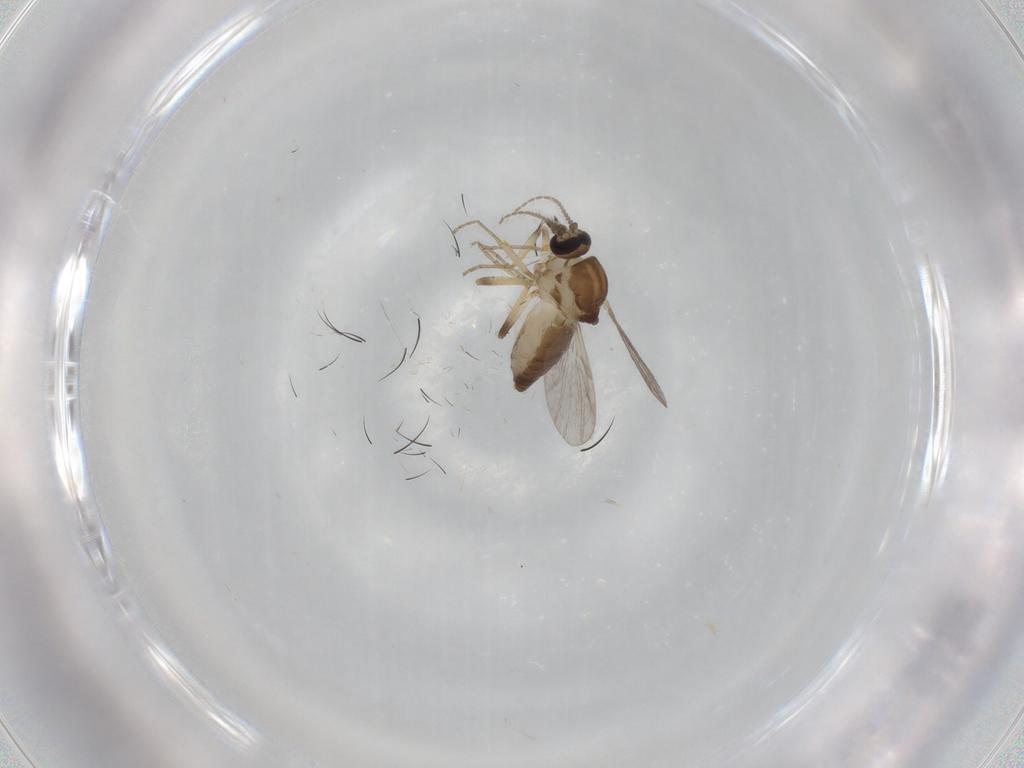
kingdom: Animalia
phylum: Arthropoda
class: Insecta
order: Diptera
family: Ceratopogonidae
